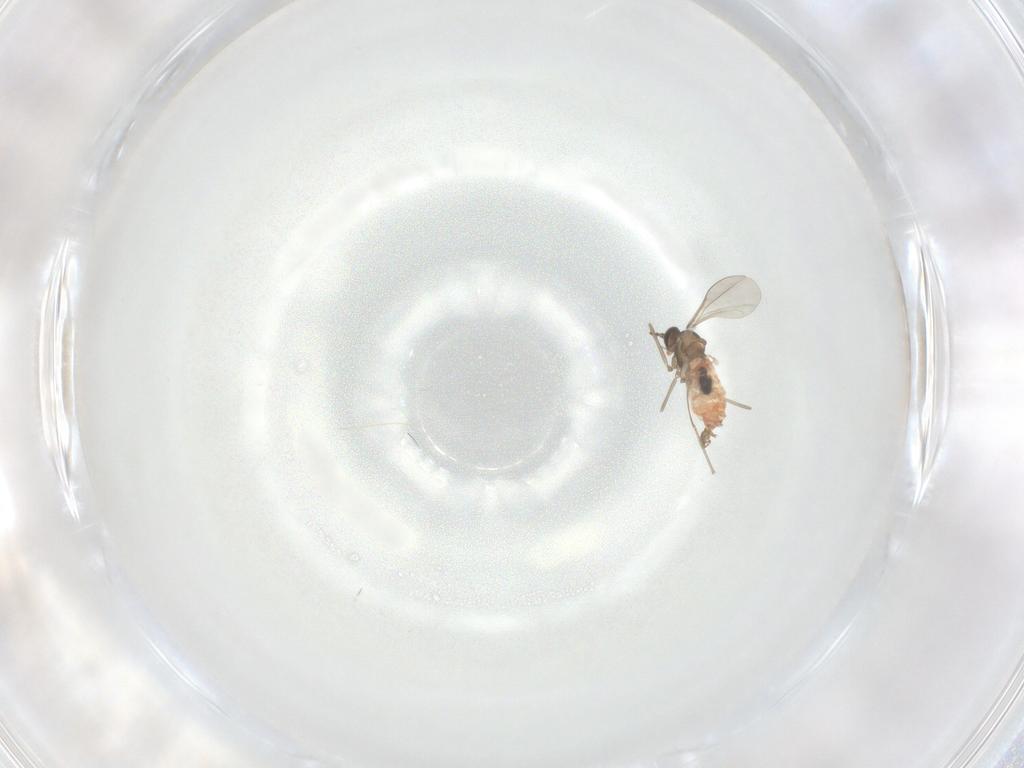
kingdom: Animalia
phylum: Arthropoda
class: Insecta
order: Diptera
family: Cecidomyiidae
